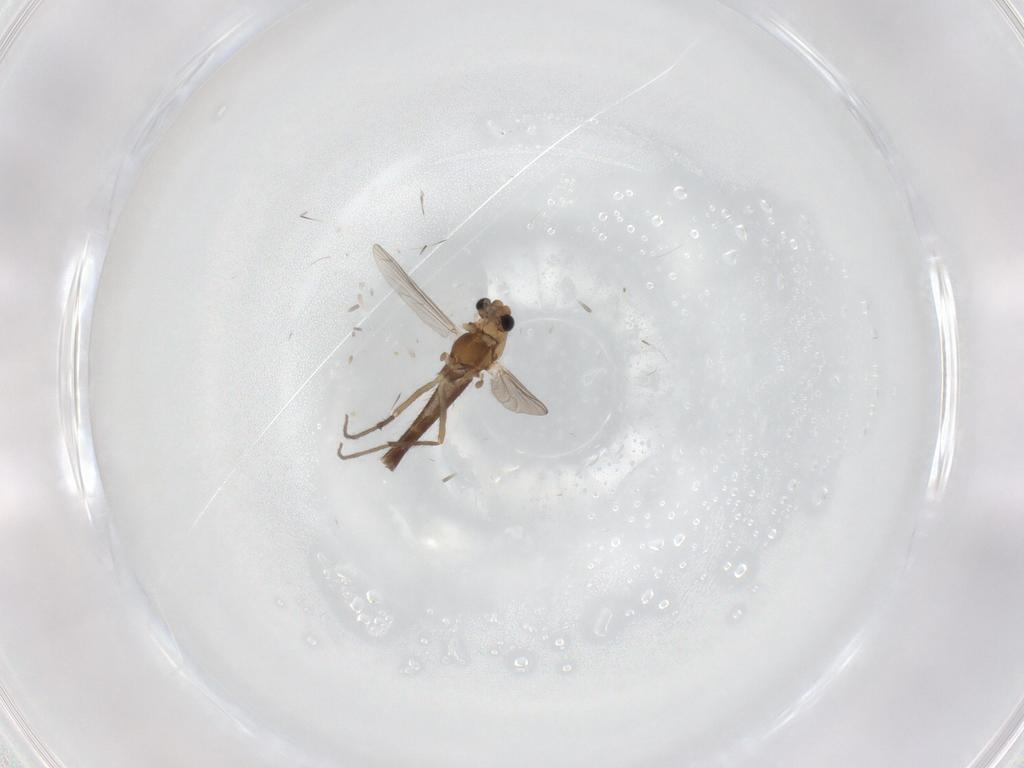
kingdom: Animalia
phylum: Arthropoda
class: Insecta
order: Diptera
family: Chironomidae
